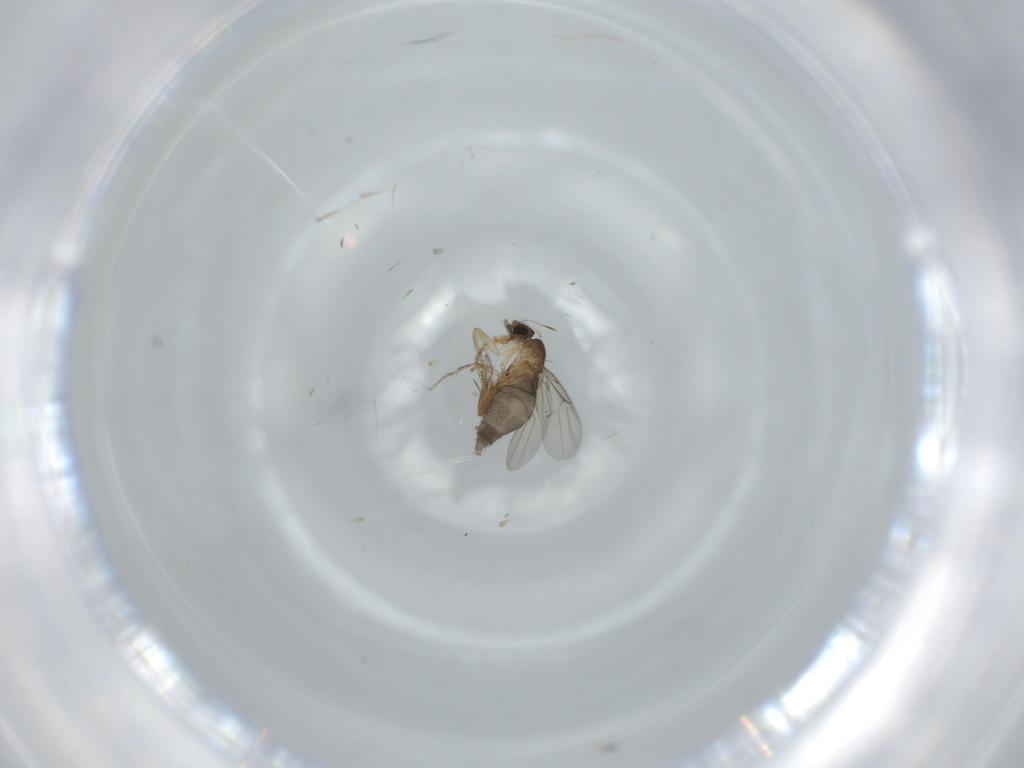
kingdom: Animalia
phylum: Arthropoda
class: Insecta
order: Diptera
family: Phoridae
